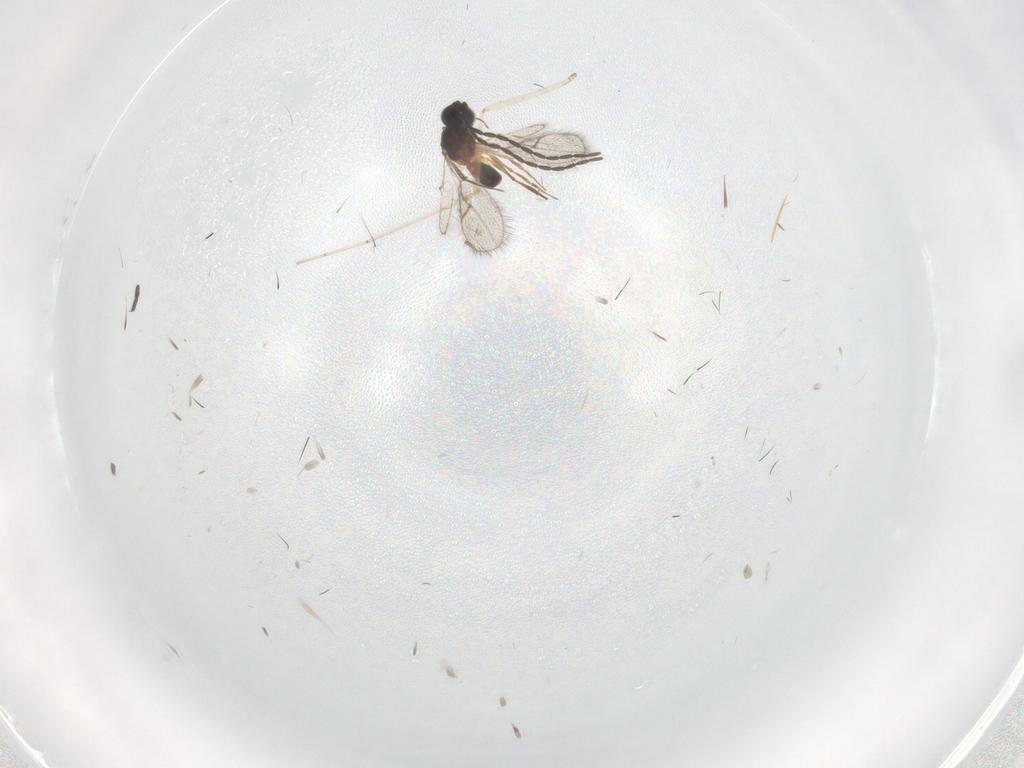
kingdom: Animalia
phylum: Arthropoda
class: Insecta
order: Hymenoptera
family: Figitidae
